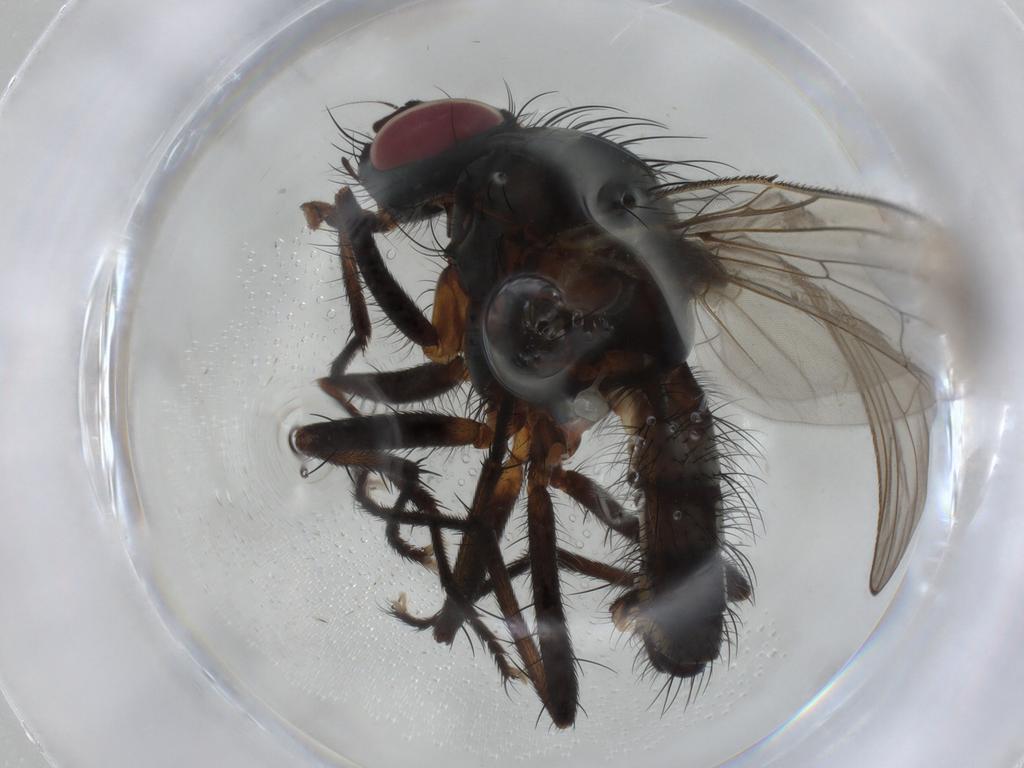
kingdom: Animalia
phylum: Arthropoda
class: Insecta
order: Diptera
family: Anthomyiidae
